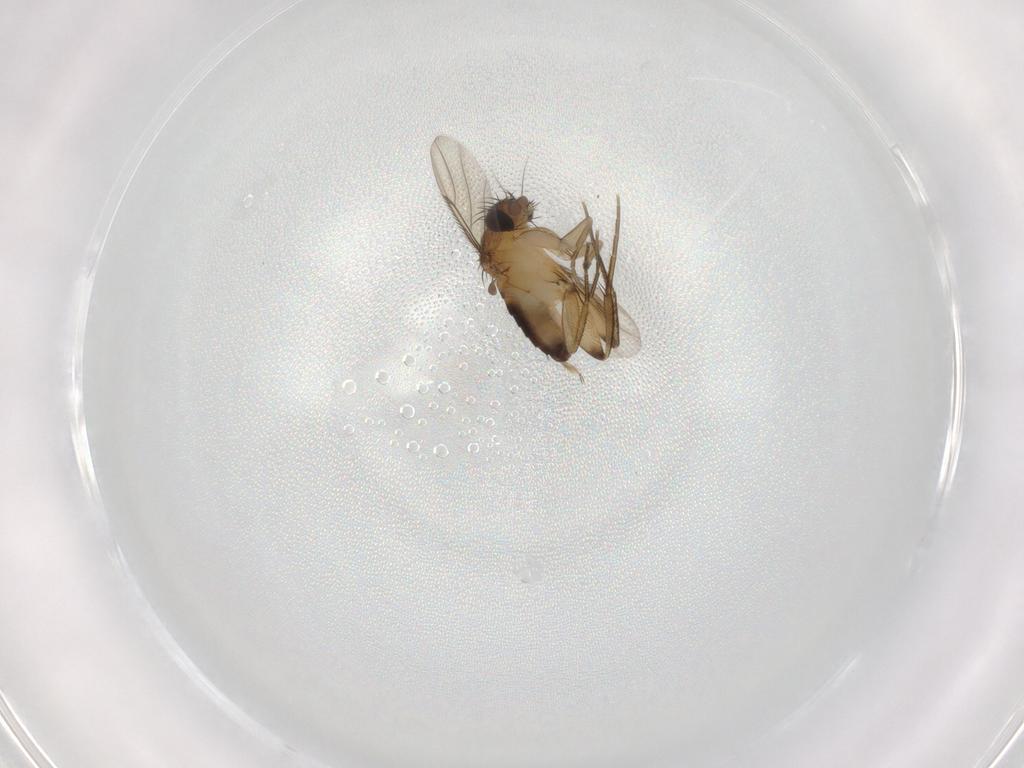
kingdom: Animalia
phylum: Arthropoda
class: Insecta
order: Diptera
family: Phoridae
